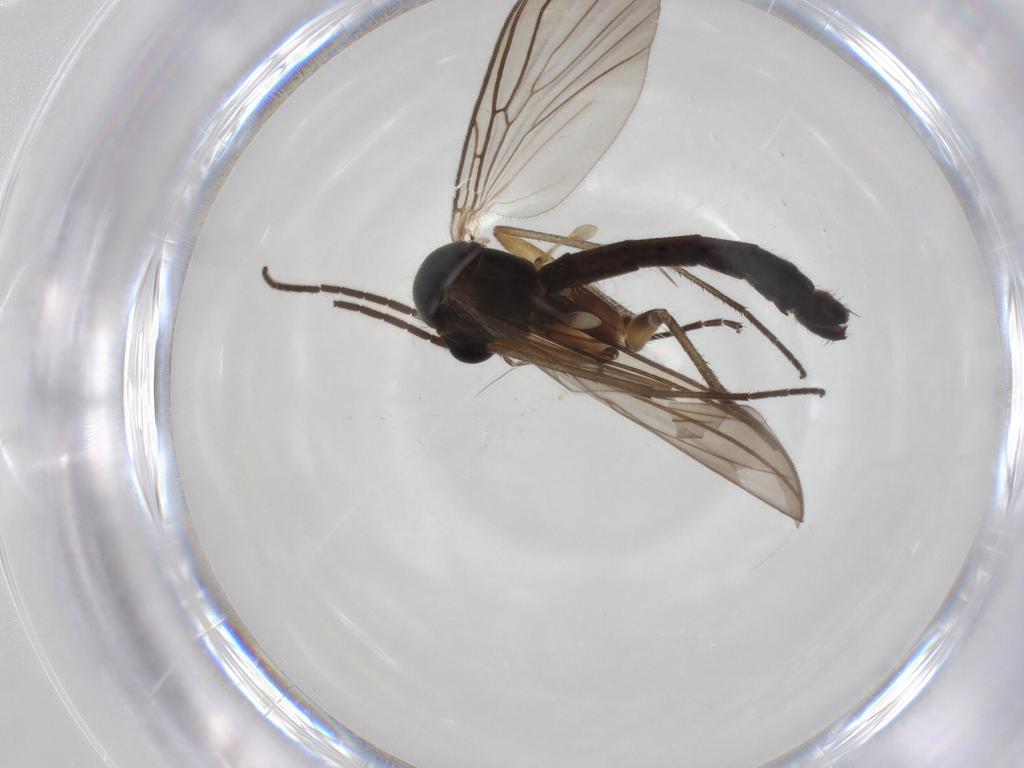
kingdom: Animalia
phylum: Arthropoda
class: Insecta
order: Diptera
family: Mycetophilidae
